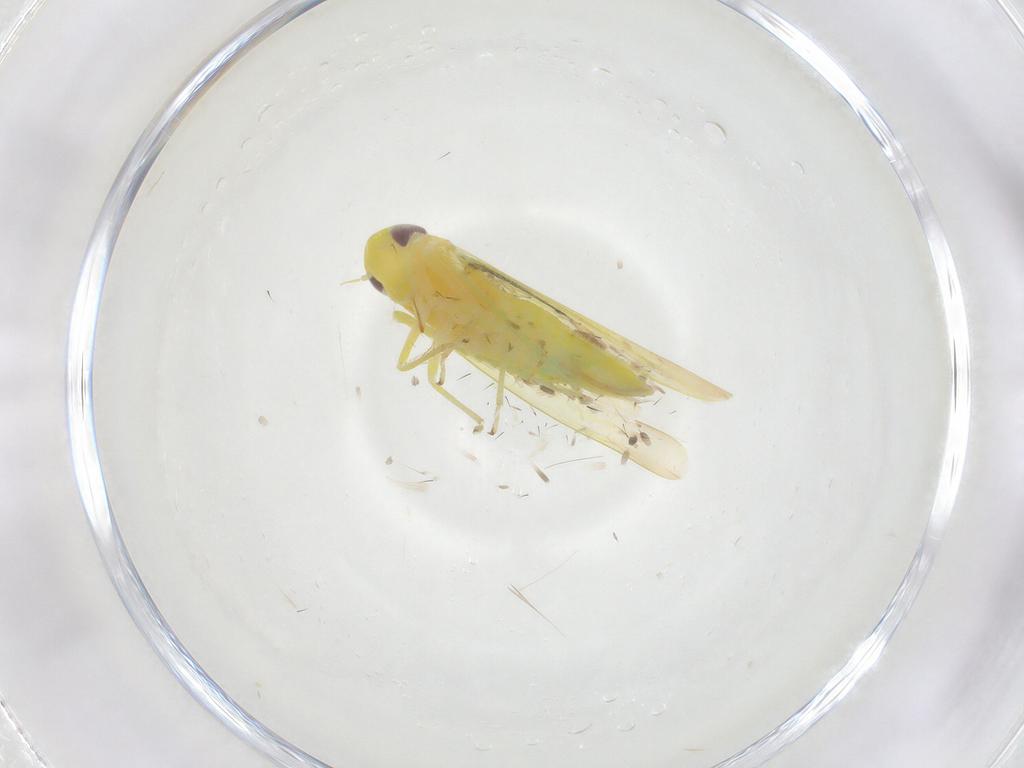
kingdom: Animalia
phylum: Arthropoda
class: Insecta
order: Hemiptera
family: Cicadellidae
